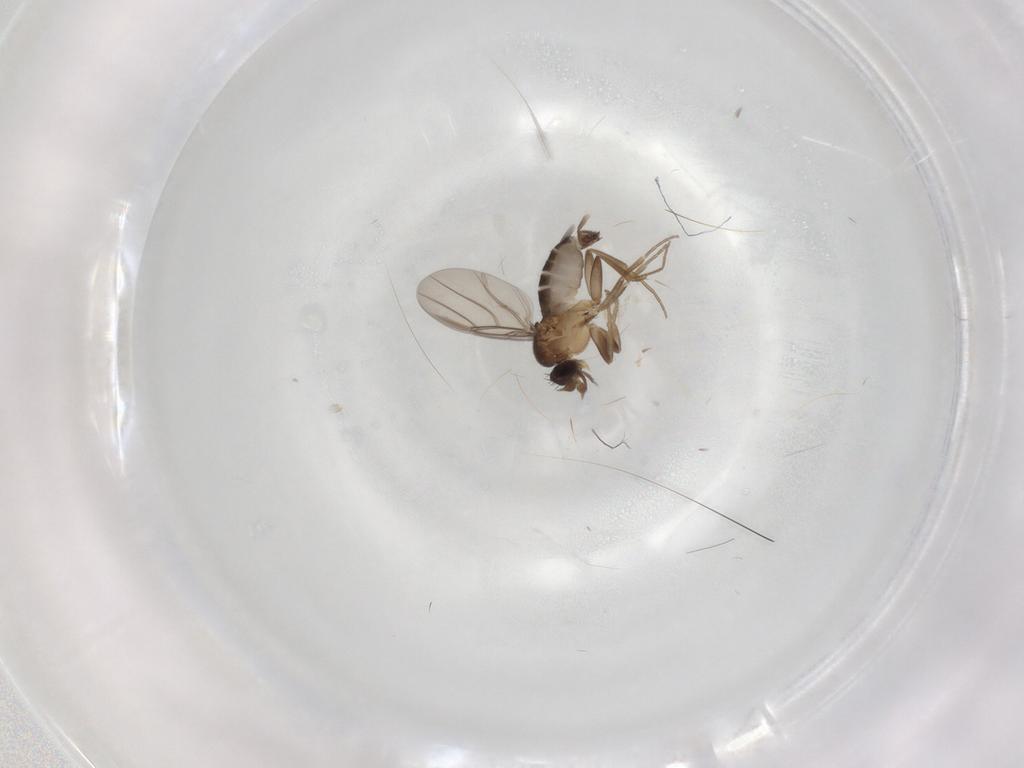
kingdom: Animalia
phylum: Arthropoda
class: Insecta
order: Diptera
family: Phoridae
